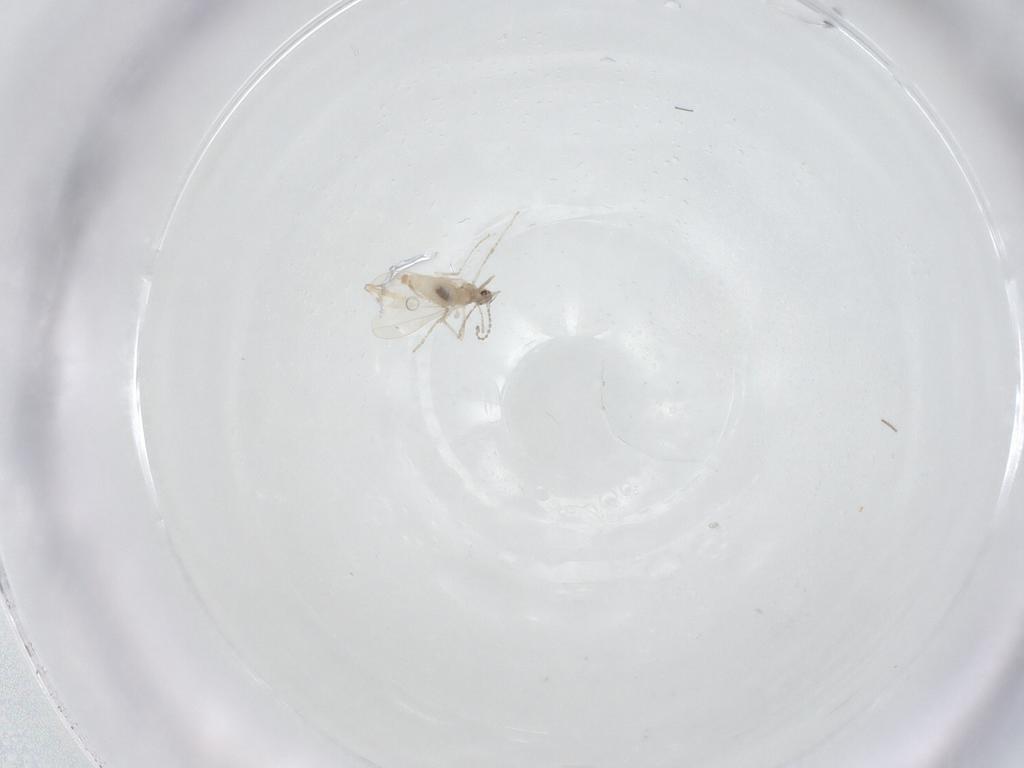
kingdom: Animalia
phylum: Arthropoda
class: Insecta
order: Diptera
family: Cecidomyiidae
